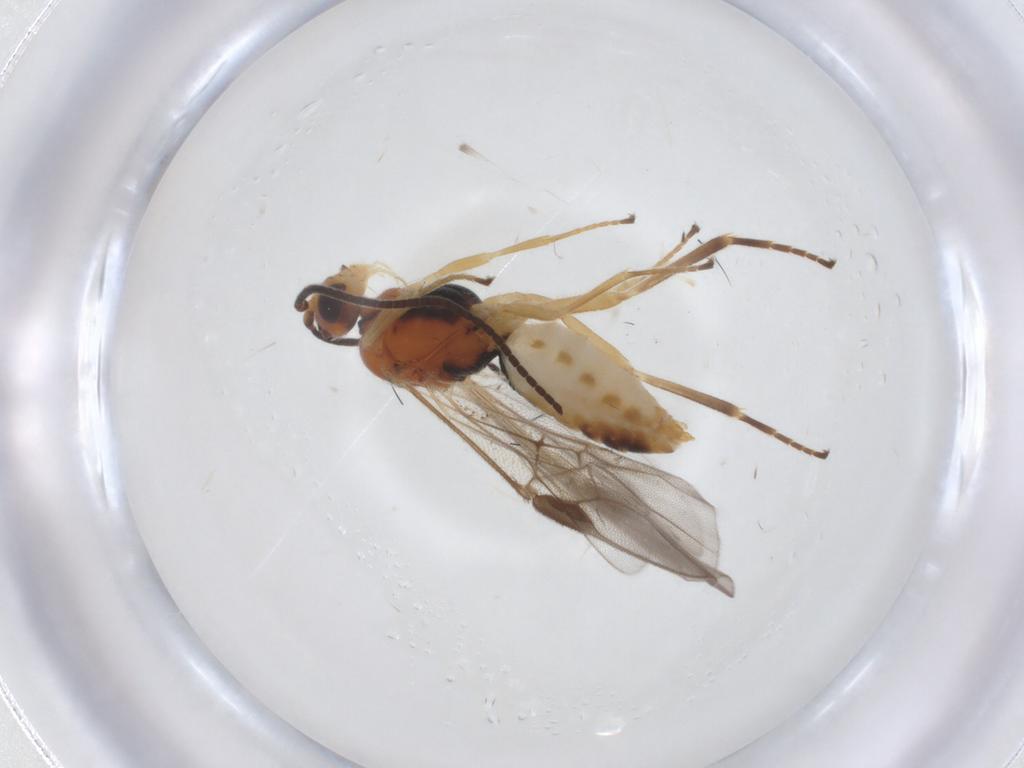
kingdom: Animalia
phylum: Arthropoda
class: Insecta
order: Hymenoptera
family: Braconidae
